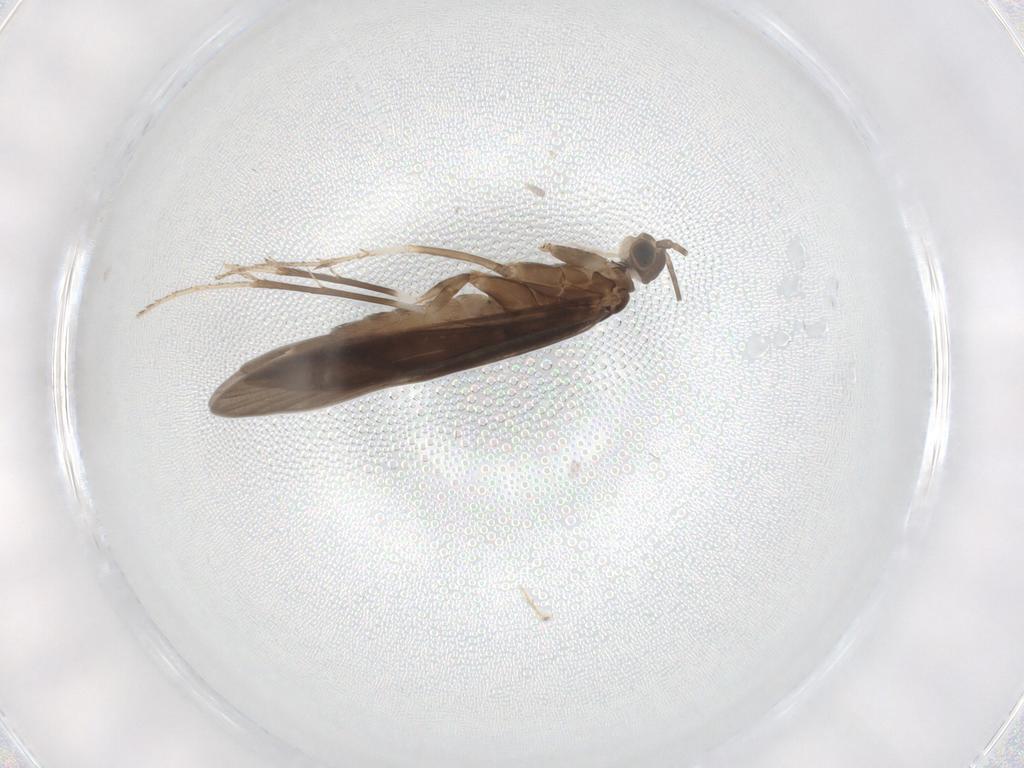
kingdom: Animalia
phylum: Arthropoda
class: Insecta
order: Trichoptera
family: Xiphocentronidae
